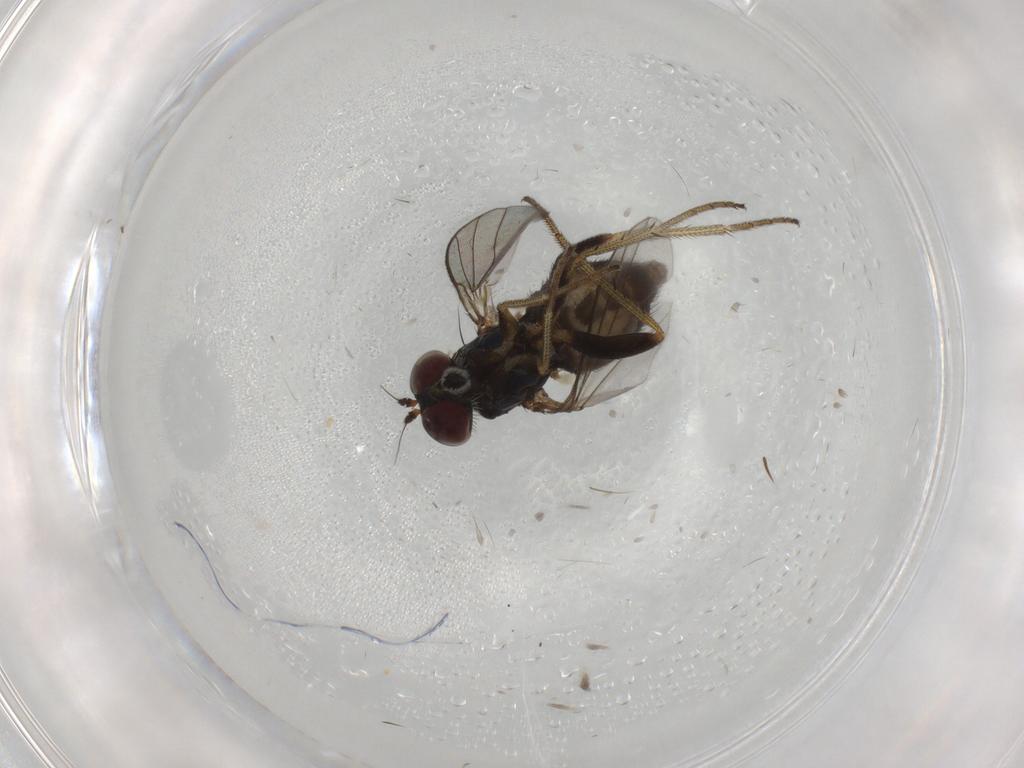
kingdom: Animalia
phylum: Arthropoda
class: Insecta
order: Diptera
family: Dolichopodidae
